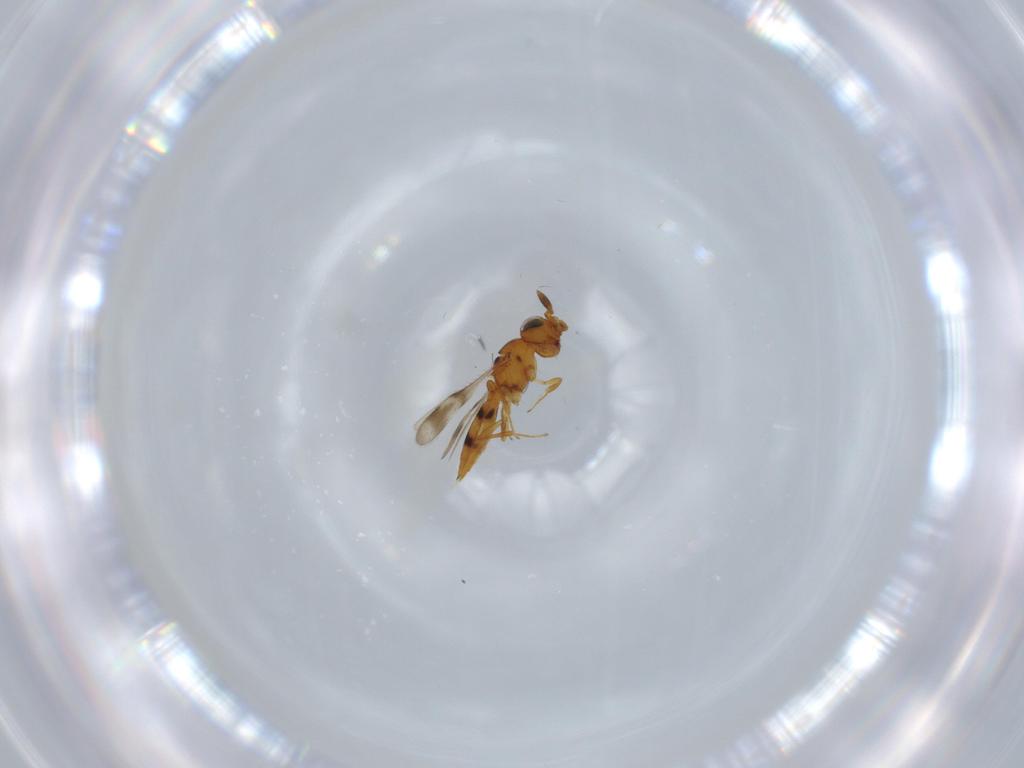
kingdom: Animalia
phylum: Arthropoda
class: Insecta
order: Hymenoptera
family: Scelionidae
